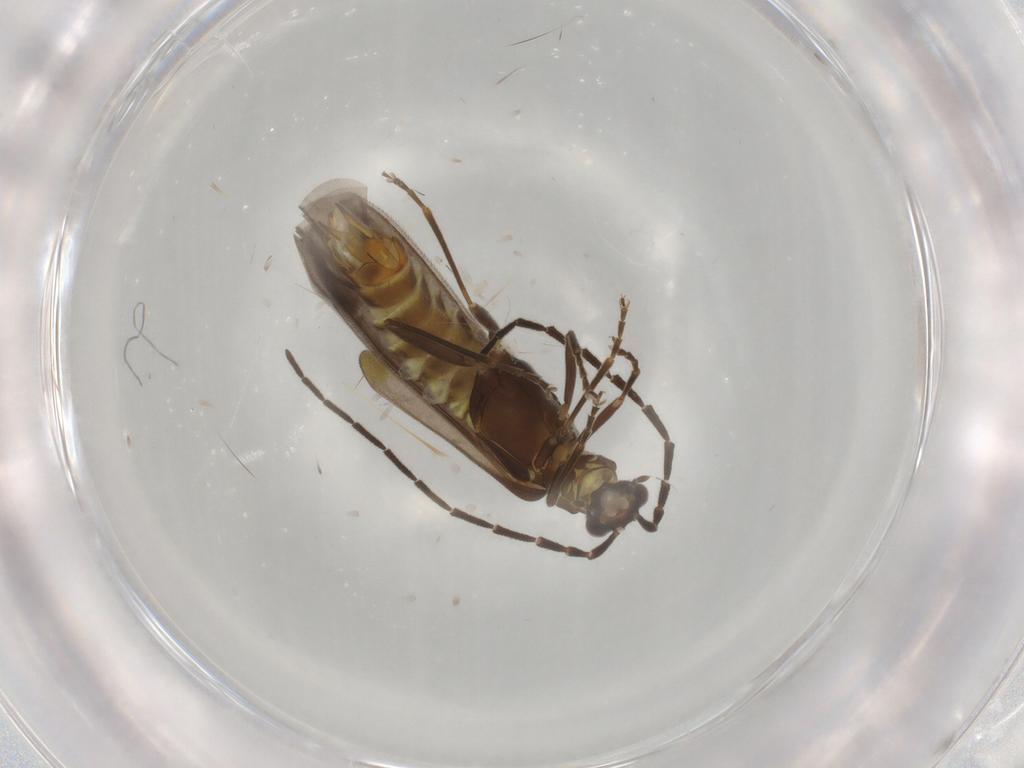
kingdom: Animalia
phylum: Arthropoda
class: Insecta
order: Coleoptera
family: Cantharidae
